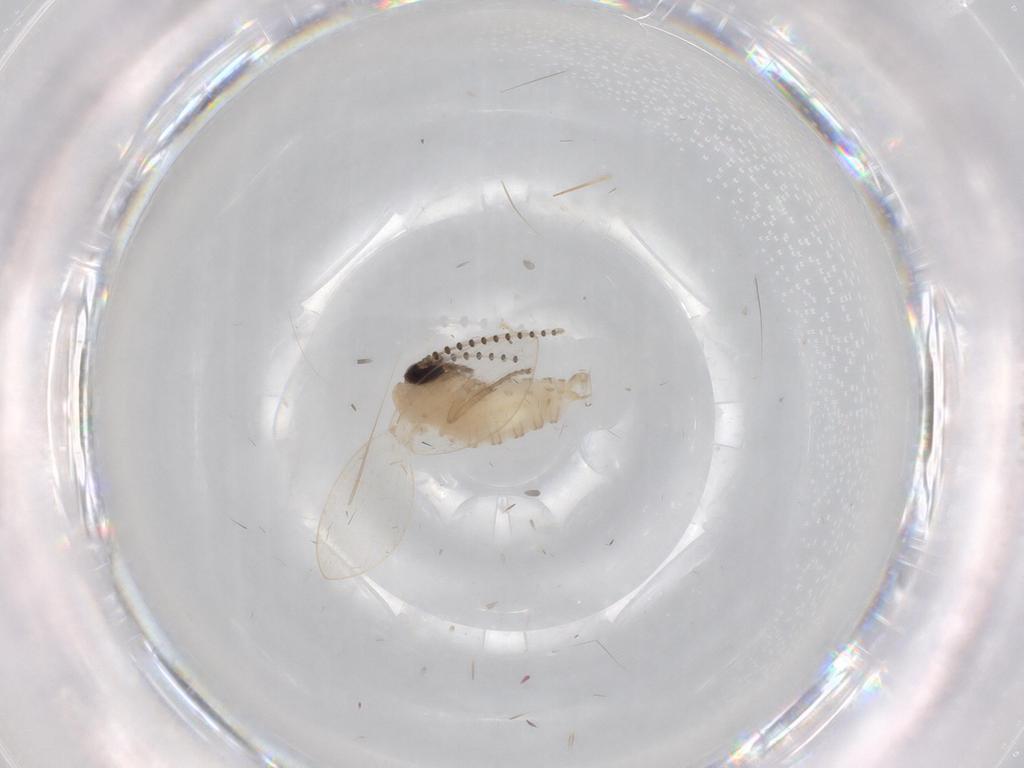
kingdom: Animalia
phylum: Arthropoda
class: Insecta
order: Diptera
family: Psychodidae
